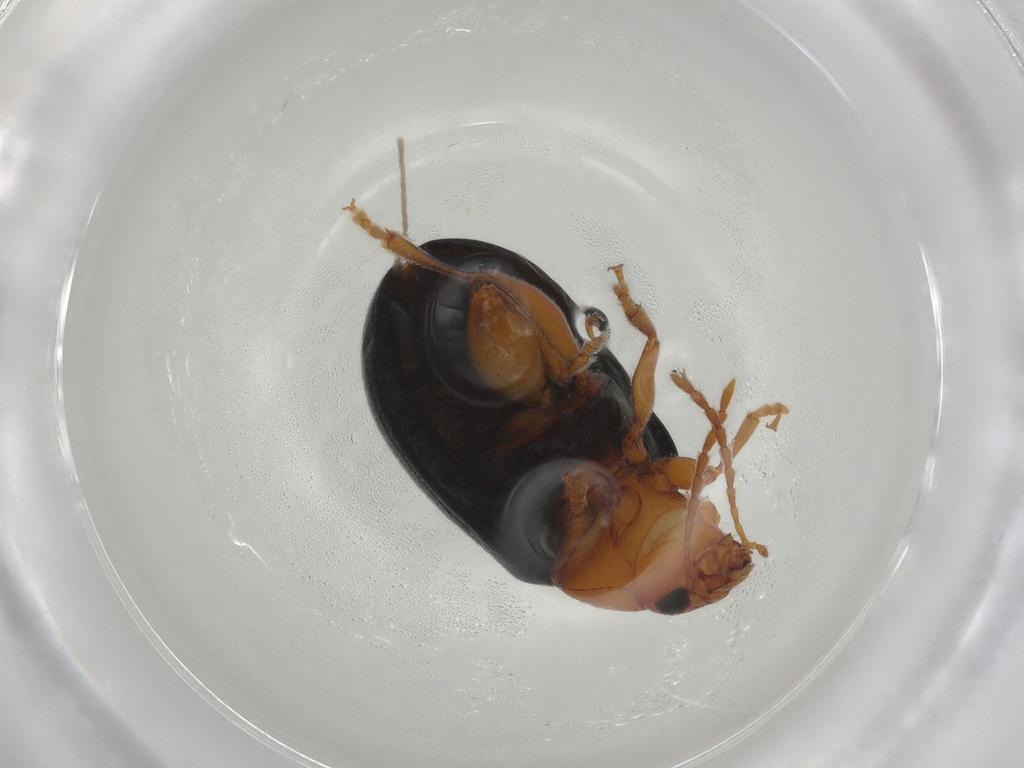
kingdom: Animalia
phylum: Arthropoda
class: Insecta
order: Coleoptera
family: Chrysomelidae
